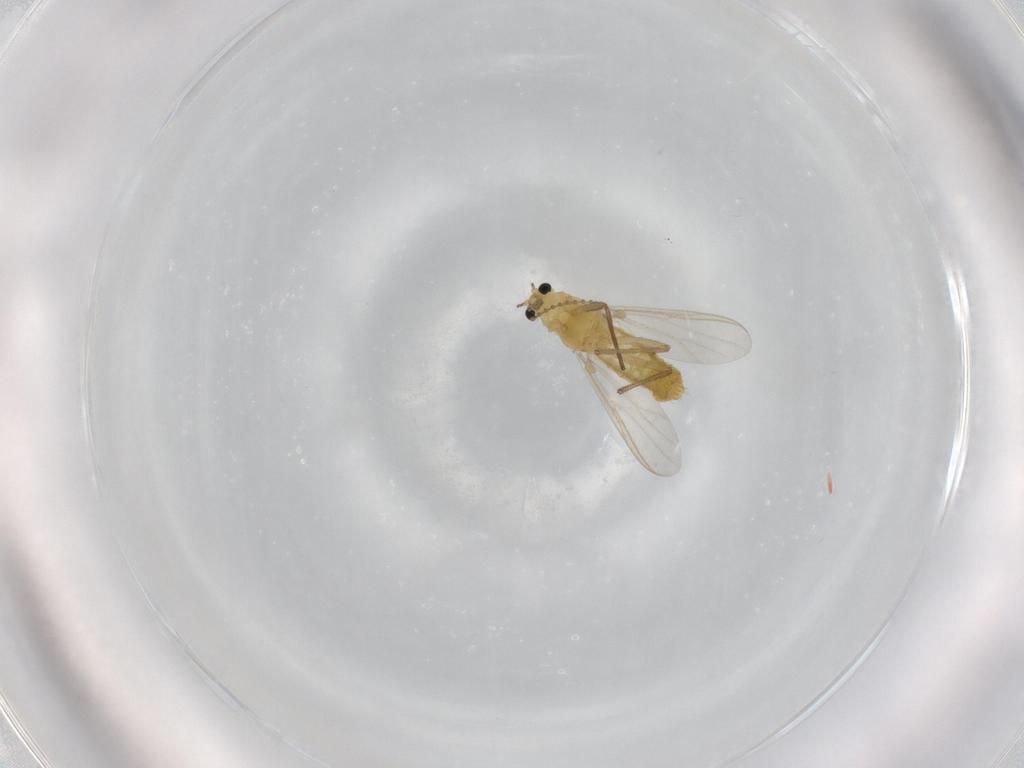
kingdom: Animalia
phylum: Arthropoda
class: Insecta
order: Diptera
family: Chironomidae
